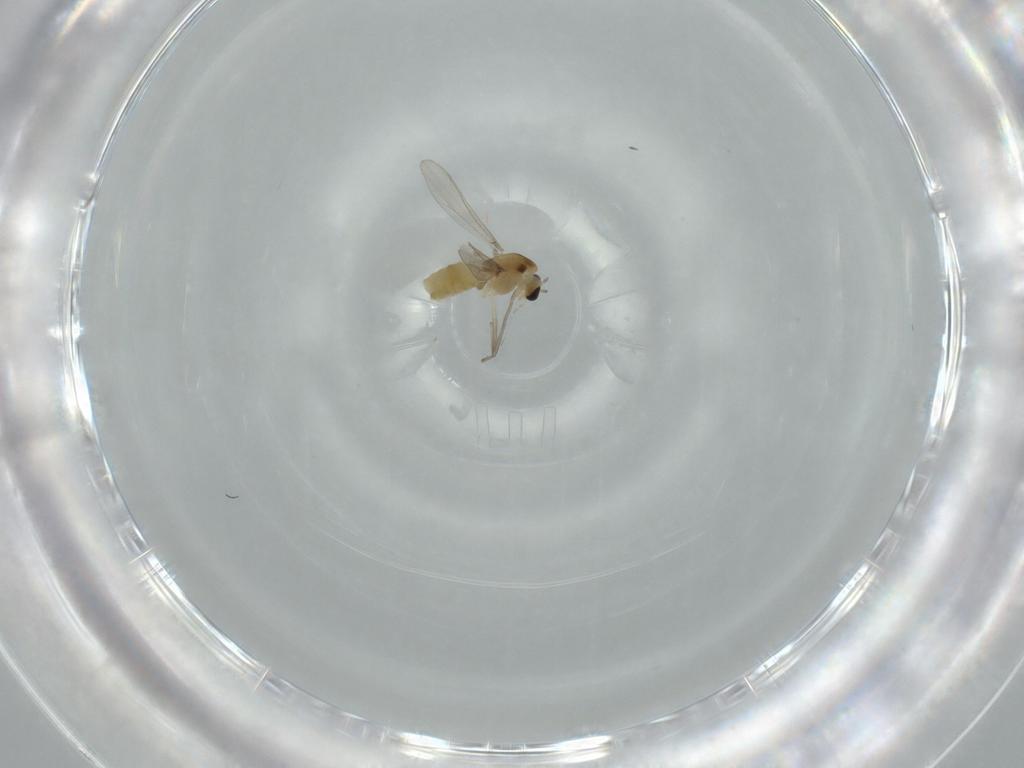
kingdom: Animalia
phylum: Arthropoda
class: Insecta
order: Diptera
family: Chironomidae
